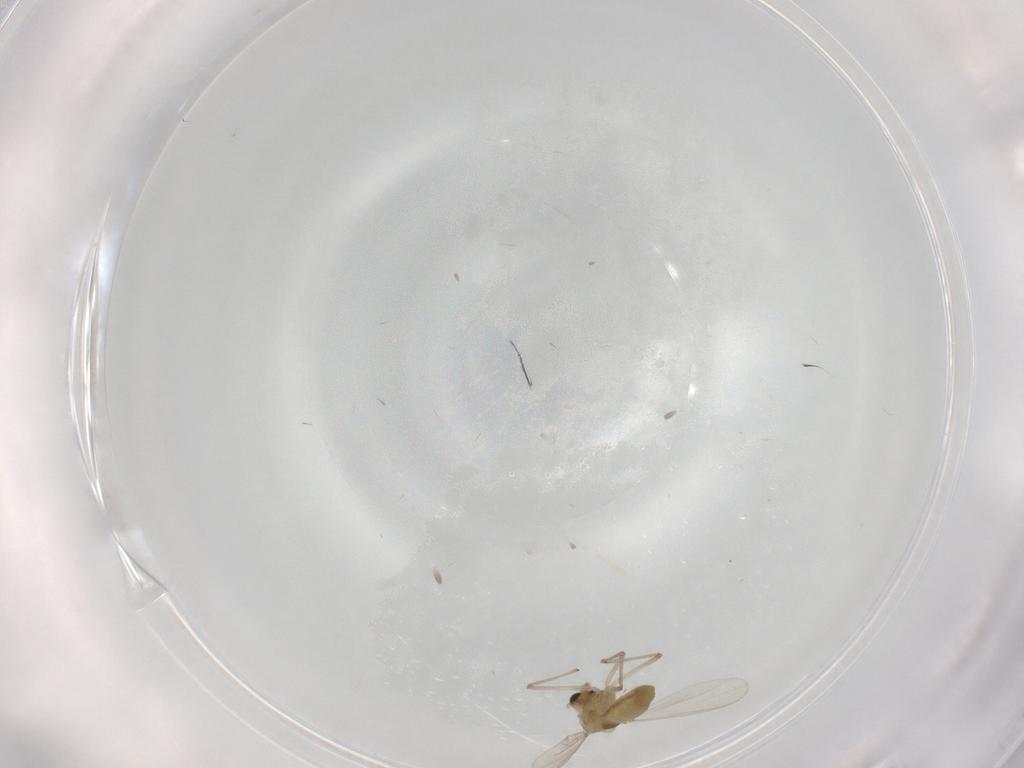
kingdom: Animalia
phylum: Arthropoda
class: Insecta
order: Diptera
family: Chironomidae
